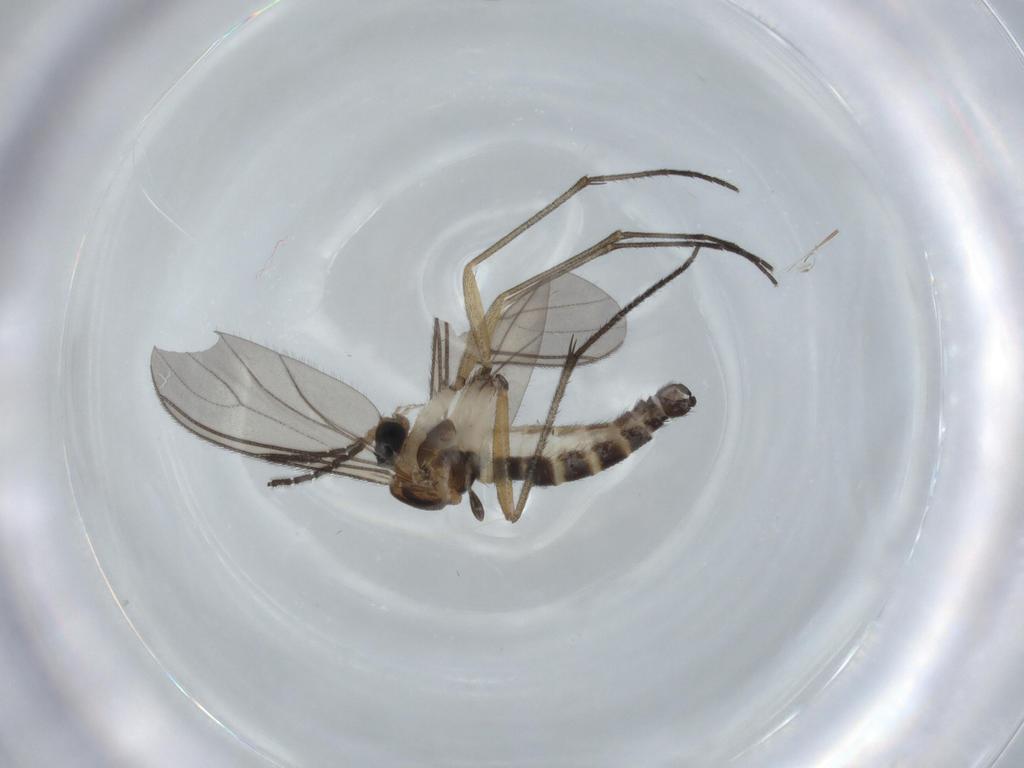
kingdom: Animalia
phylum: Arthropoda
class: Insecta
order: Diptera
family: Sciaridae
